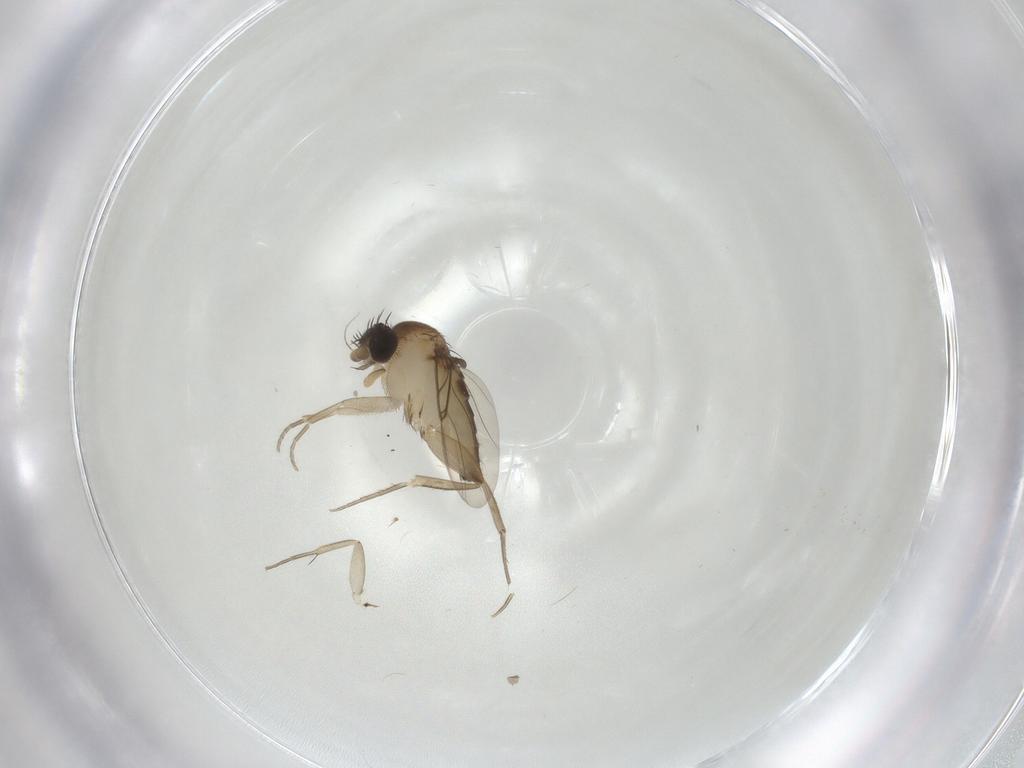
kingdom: Animalia
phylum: Arthropoda
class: Insecta
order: Diptera
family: Phoridae
